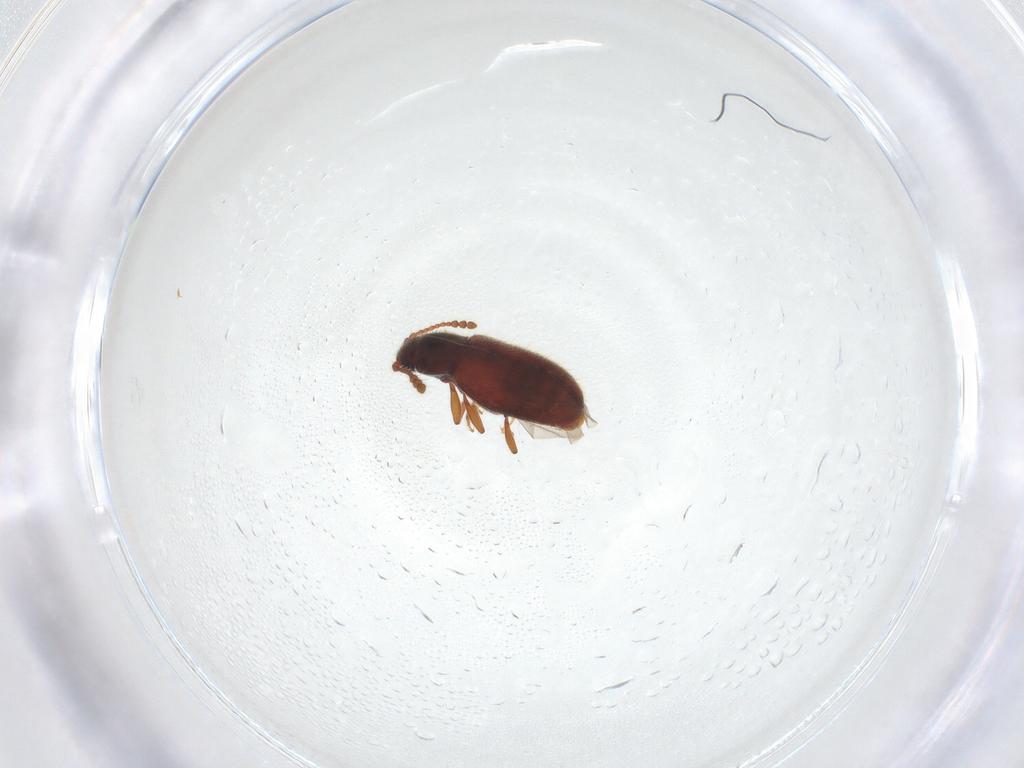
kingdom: Animalia
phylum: Arthropoda
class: Insecta
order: Coleoptera
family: Cryptophagidae
